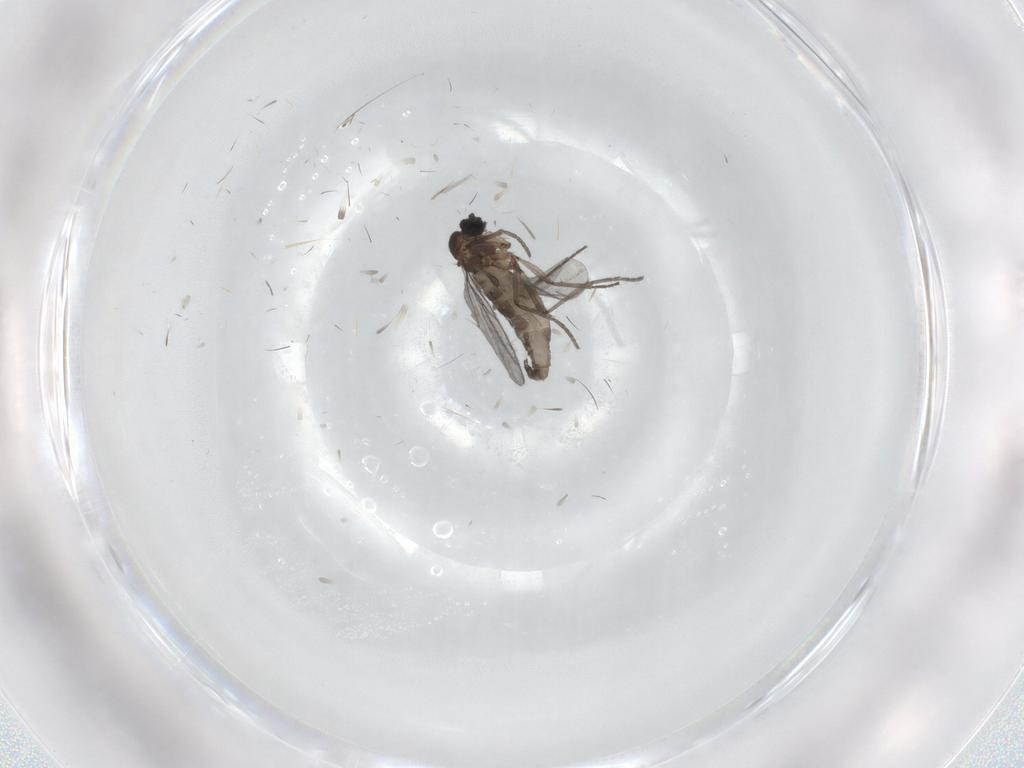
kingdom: Animalia
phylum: Arthropoda
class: Insecta
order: Diptera
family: Sciaridae
